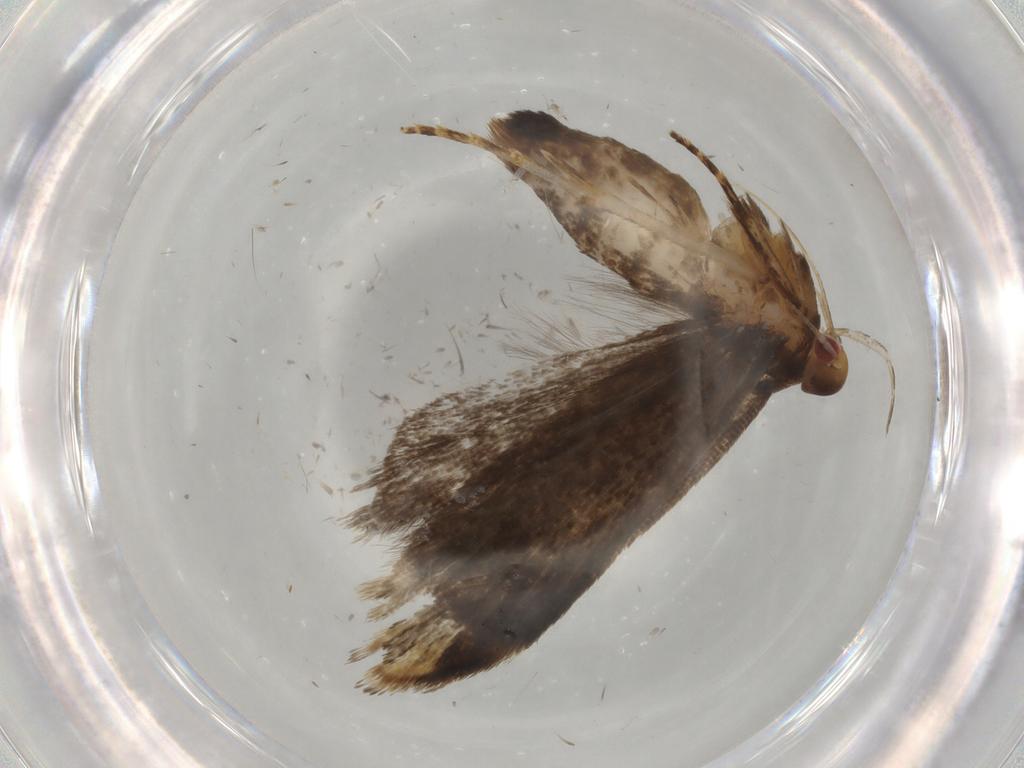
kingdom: Animalia
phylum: Arthropoda
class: Insecta
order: Lepidoptera
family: Gelechiidae
